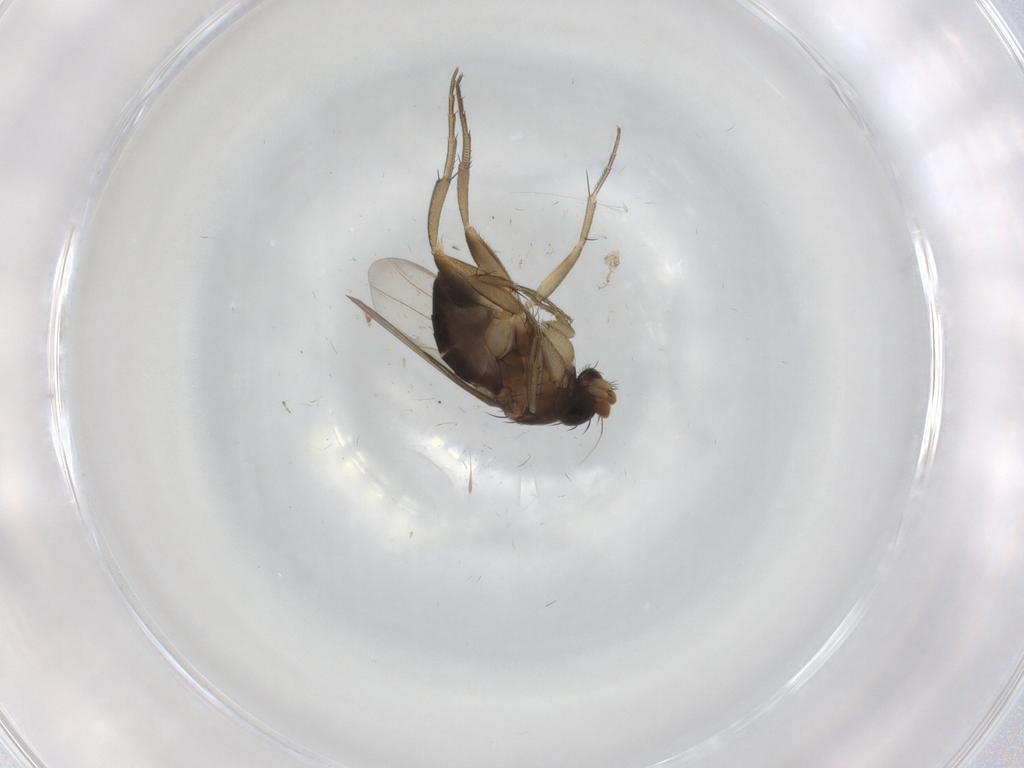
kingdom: Animalia
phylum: Arthropoda
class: Insecta
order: Diptera
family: Phoridae
